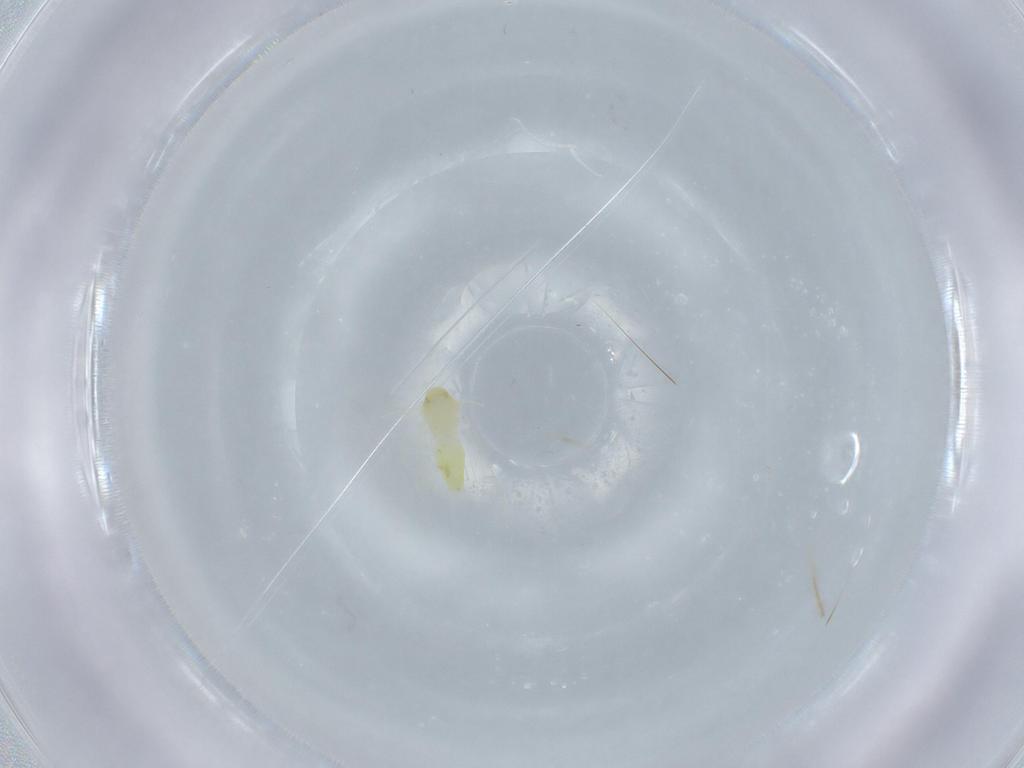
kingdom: Animalia
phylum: Arthropoda
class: Insecta
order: Hemiptera
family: Aleyrodidae
